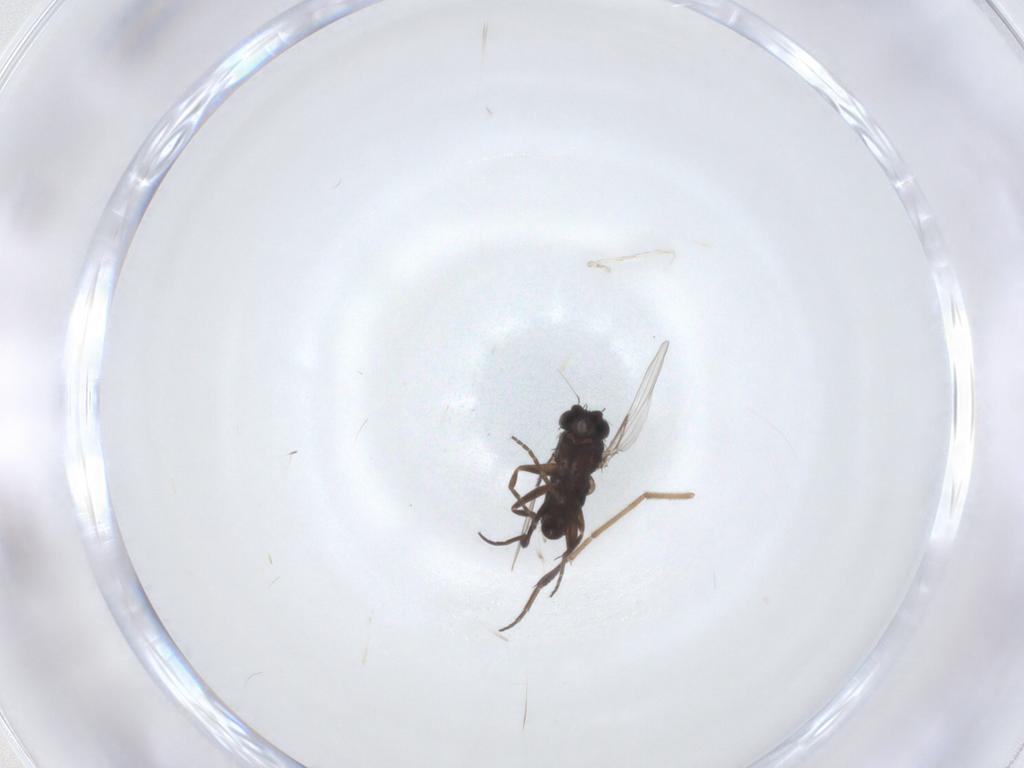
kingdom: Animalia
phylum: Arthropoda
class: Insecta
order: Diptera
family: Phoridae
